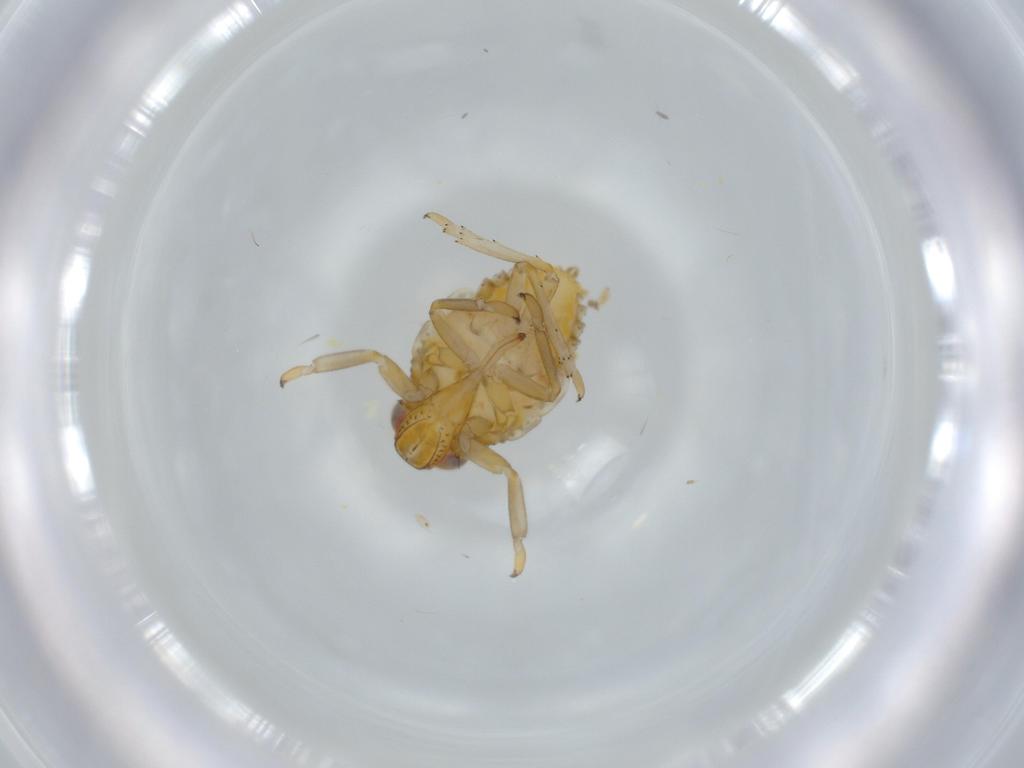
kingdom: Animalia
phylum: Arthropoda
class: Insecta
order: Hemiptera
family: Issidae
